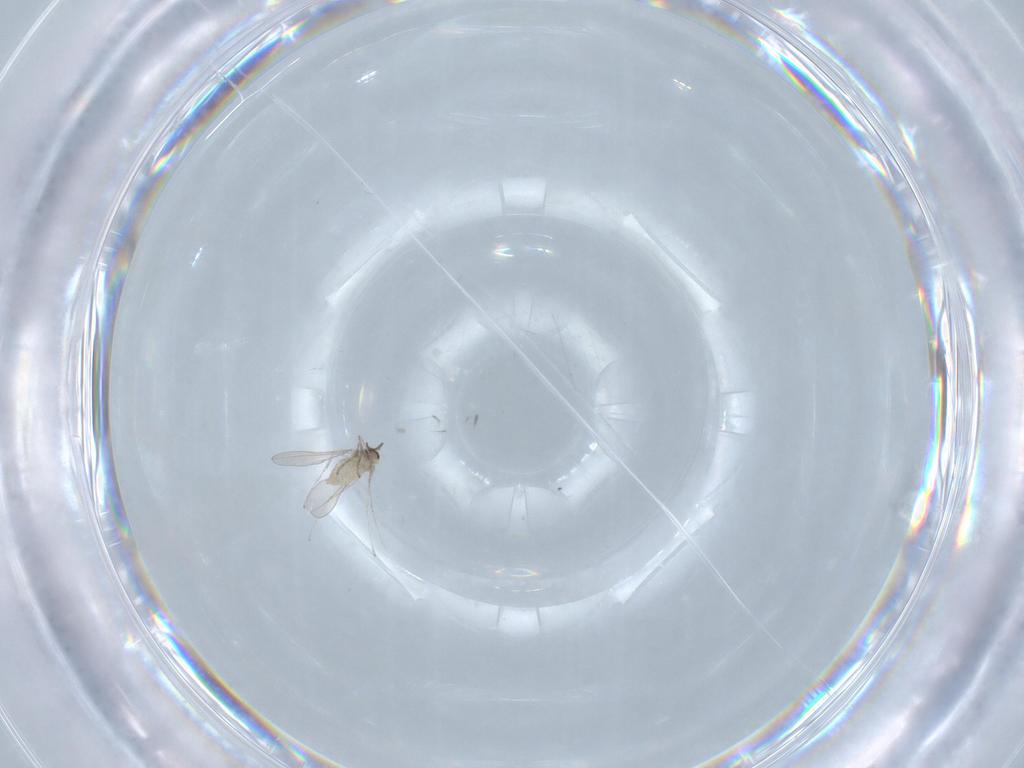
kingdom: Animalia
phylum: Arthropoda
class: Insecta
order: Diptera
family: Cecidomyiidae
